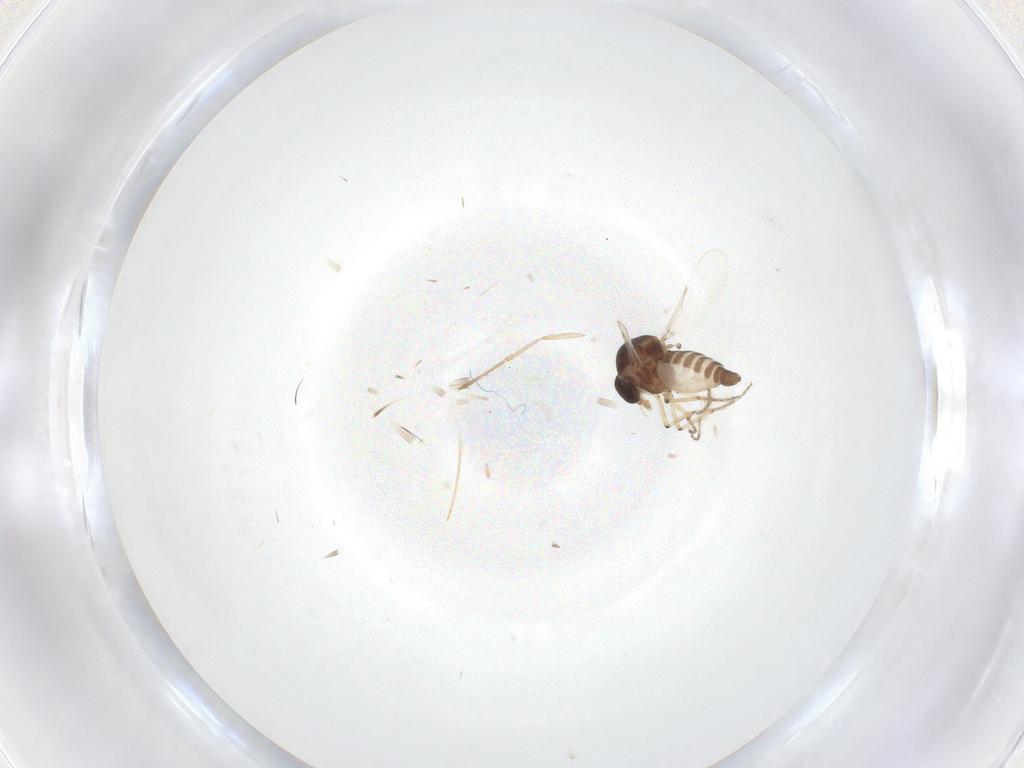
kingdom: Animalia
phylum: Arthropoda
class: Insecta
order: Diptera
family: Ceratopogonidae
